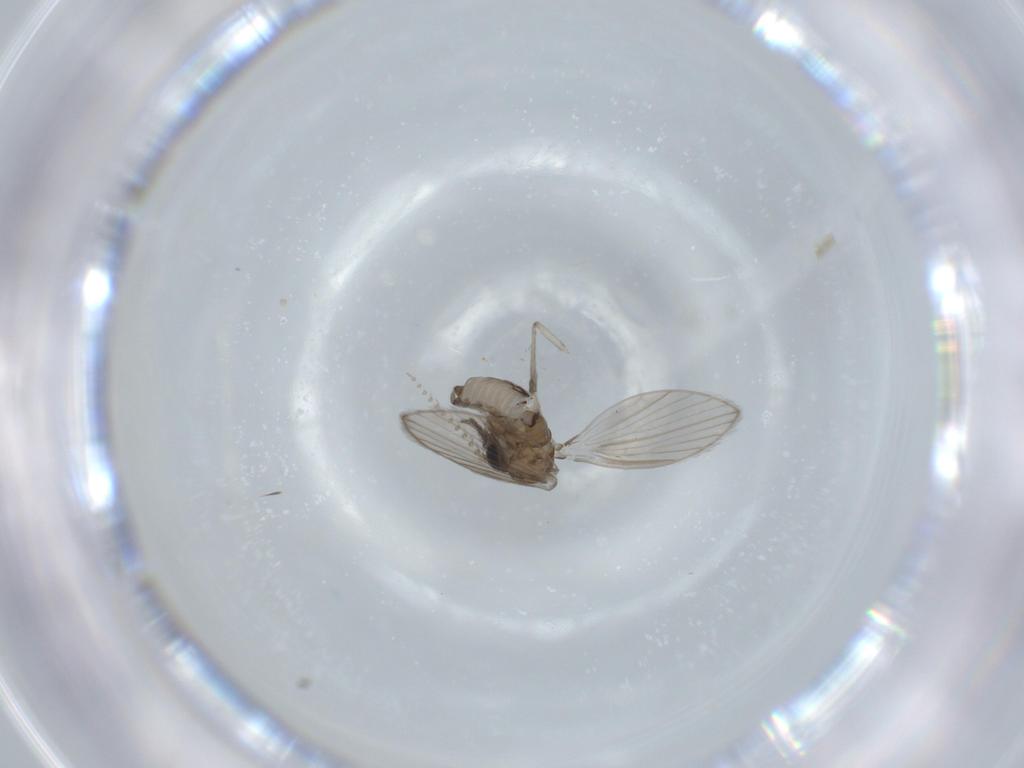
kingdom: Animalia
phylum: Arthropoda
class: Insecta
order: Diptera
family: Psychodidae
